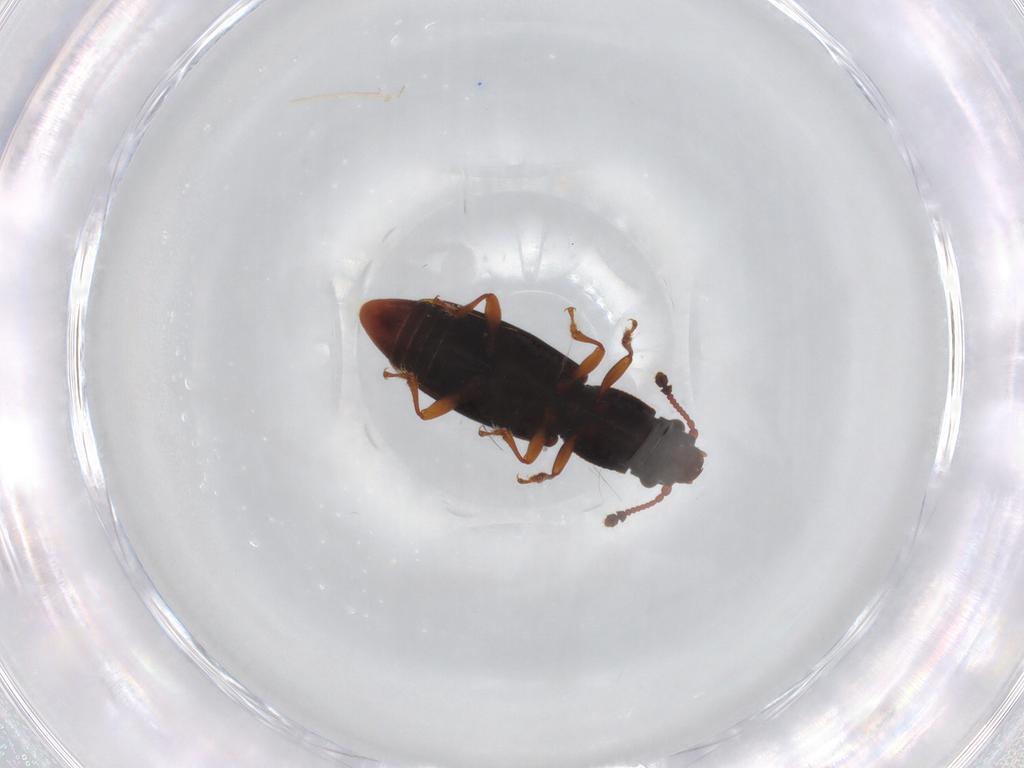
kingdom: Animalia
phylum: Arthropoda
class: Insecta
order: Coleoptera
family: Monotomidae
